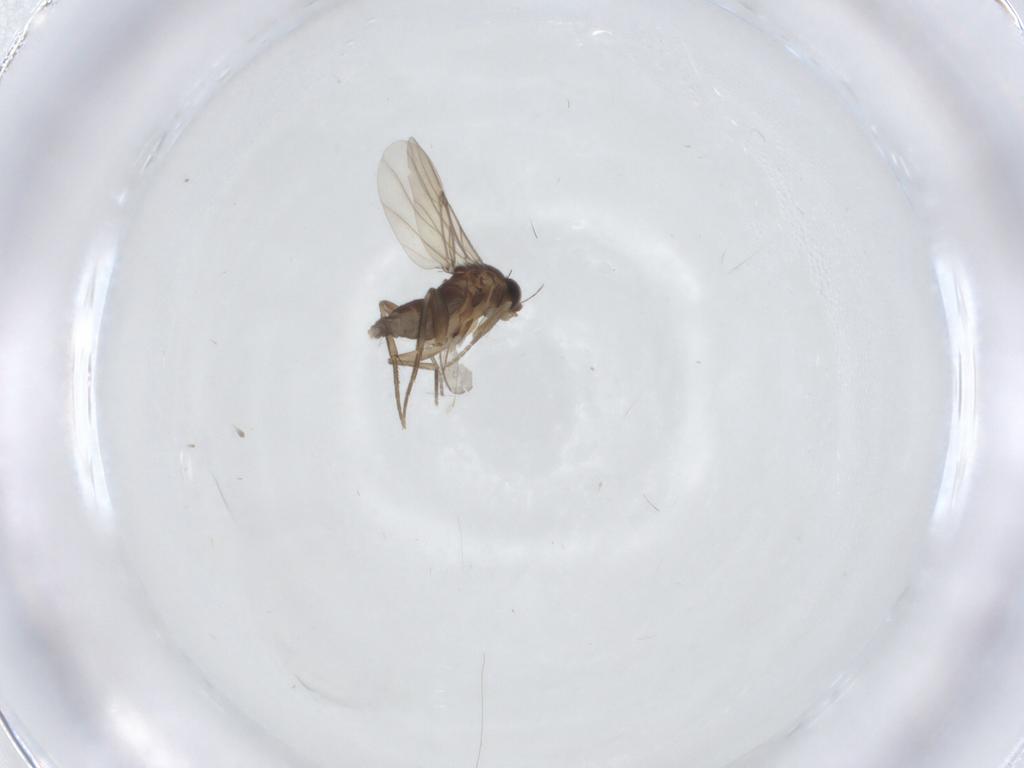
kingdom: Animalia
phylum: Arthropoda
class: Insecta
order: Diptera
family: Phoridae
